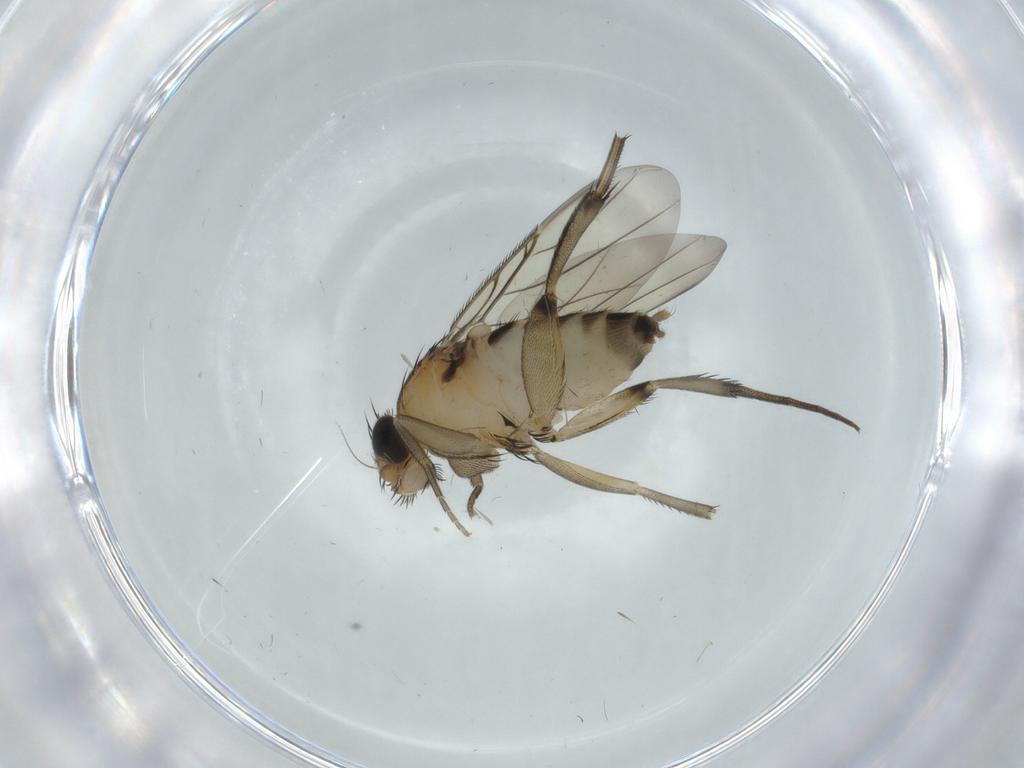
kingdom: Animalia
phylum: Arthropoda
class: Insecta
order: Diptera
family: Phoridae
